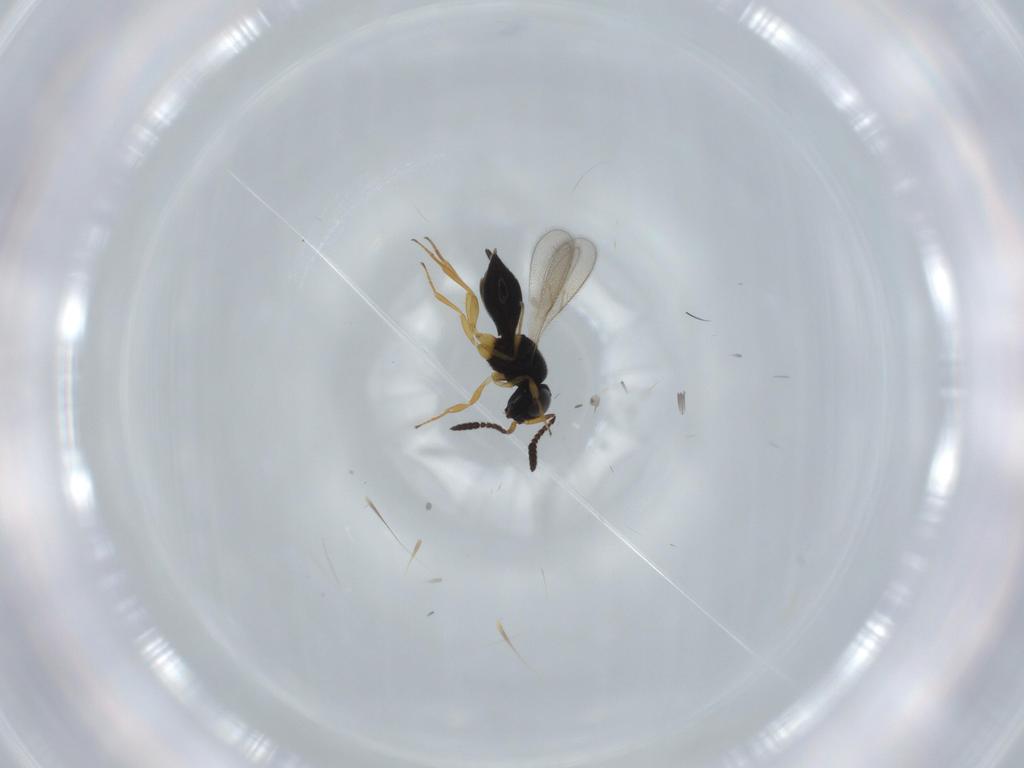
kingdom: Animalia
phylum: Arthropoda
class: Insecta
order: Hymenoptera
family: Scelionidae
